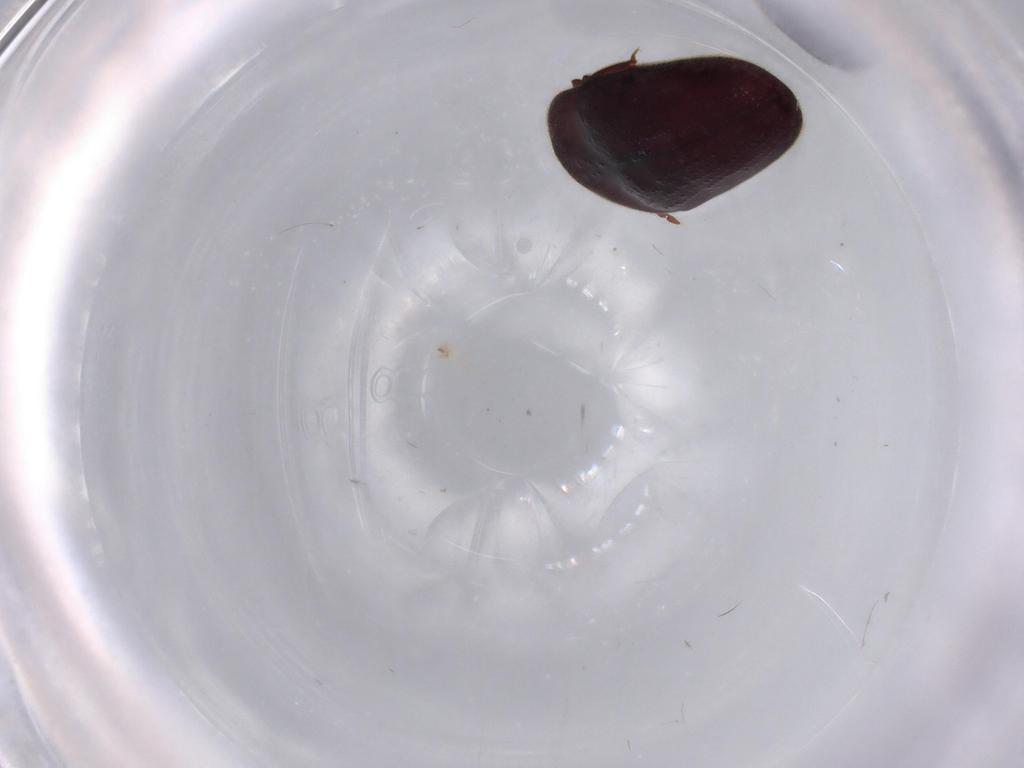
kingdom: Animalia
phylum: Arthropoda
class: Insecta
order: Coleoptera
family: Throscidae
